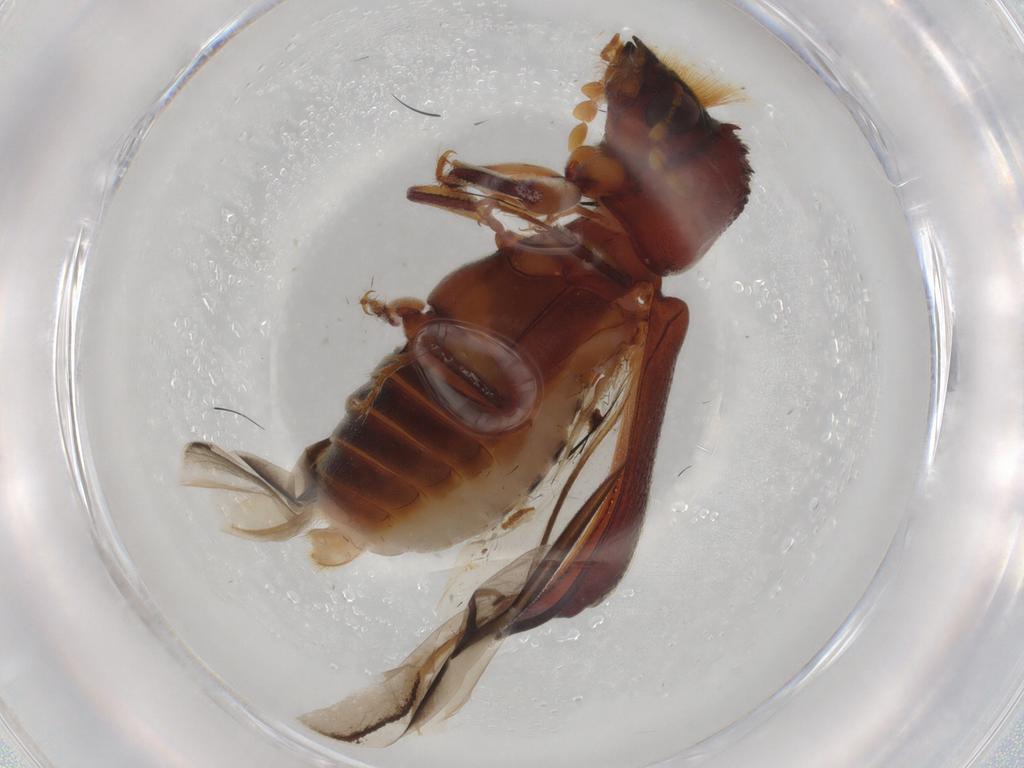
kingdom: Animalia
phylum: Arthropoda
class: Insecta
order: Coleoptera
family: Bostrichidae
